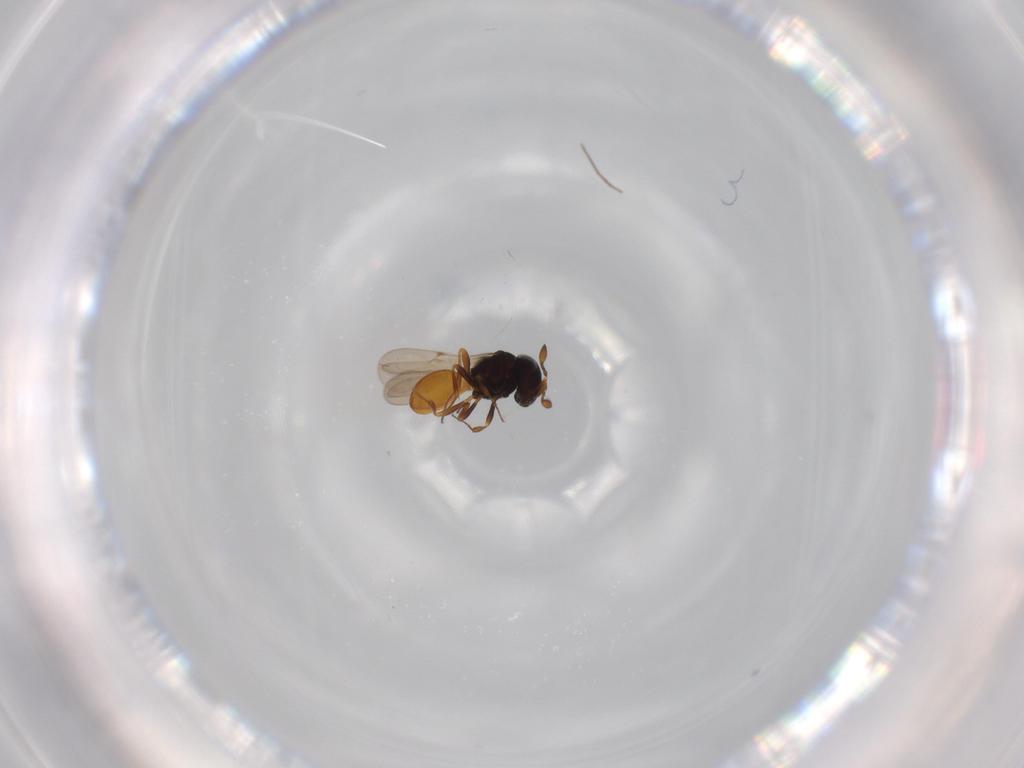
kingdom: Animalia
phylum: Arthropoda
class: Insecta
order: Hymenoptera
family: Scelionidae
